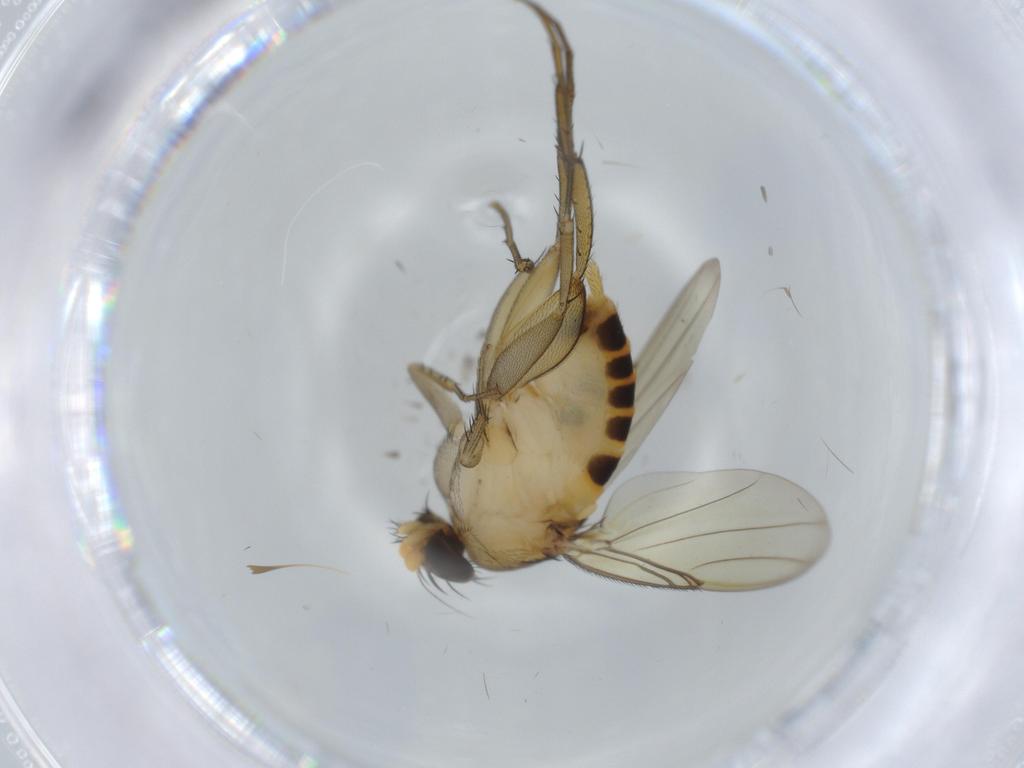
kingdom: Animalia
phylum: Arthropoda
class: Insecta
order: Diptera
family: Phoridae
